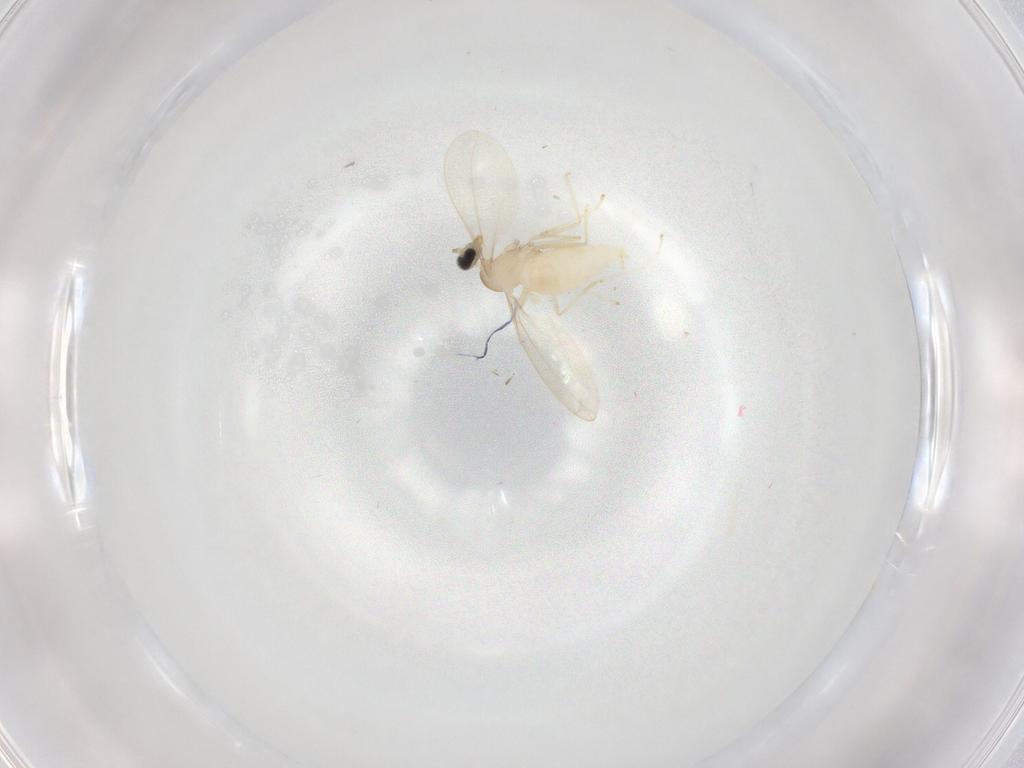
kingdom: Animalia
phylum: Arthropoda
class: Insecta
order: Diptera
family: Cecidomyiidae
